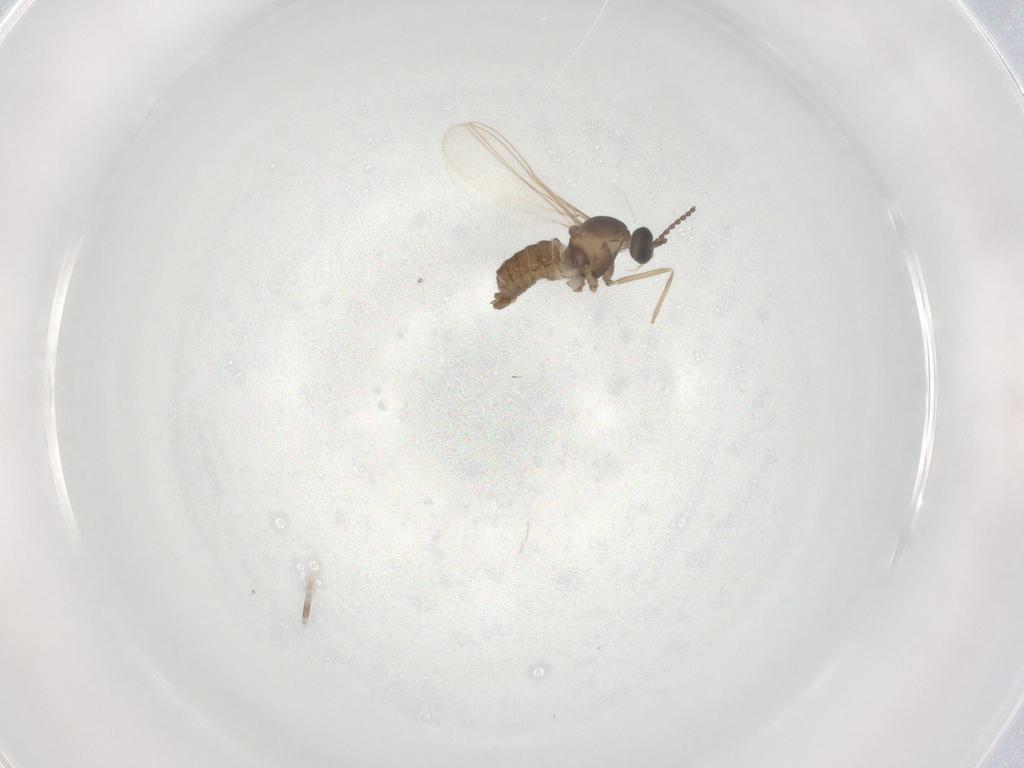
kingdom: Animalia
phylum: Arthropoda
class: Insecta
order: Diptera
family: Cecidomyiidae
